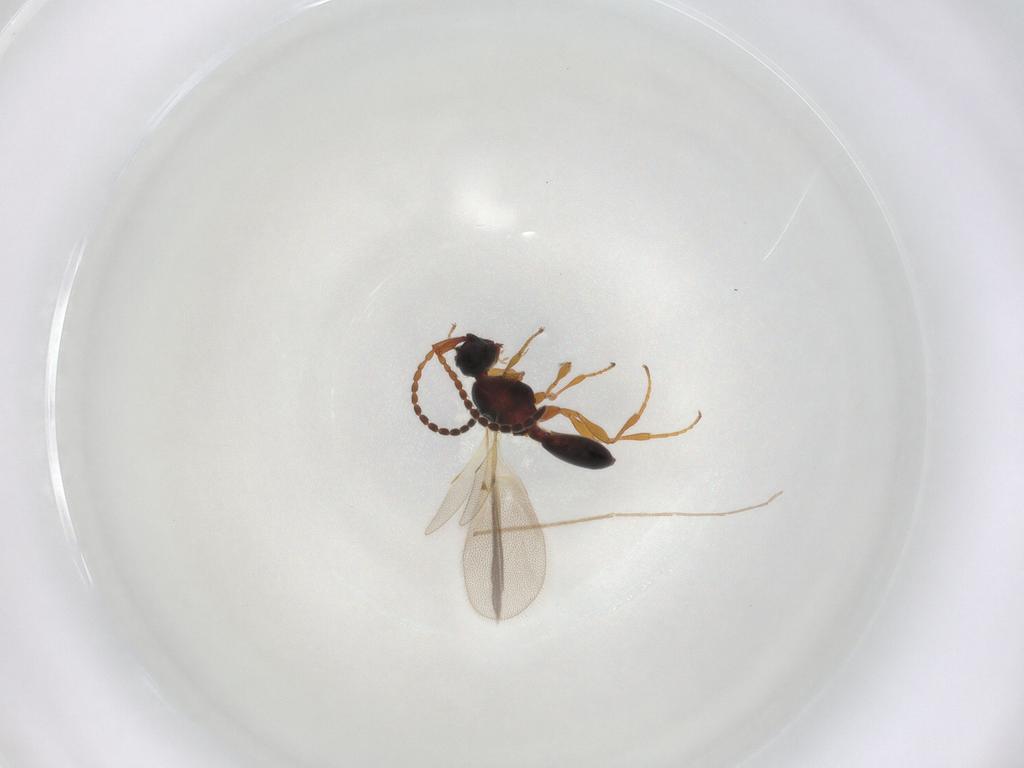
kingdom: Animalia
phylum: Arthropoda
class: Insecta
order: Hymenoptera
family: Diapriidae
